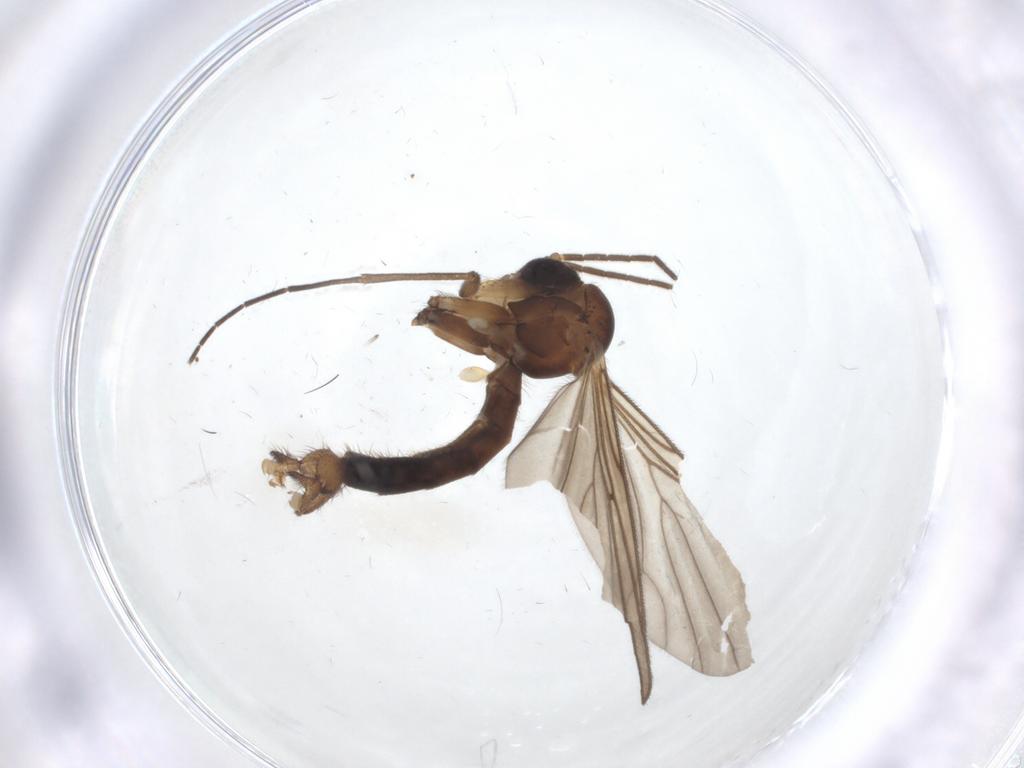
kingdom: Animalia
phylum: Arthropoda
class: Insecta
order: Diptera
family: Mycetophilidae
